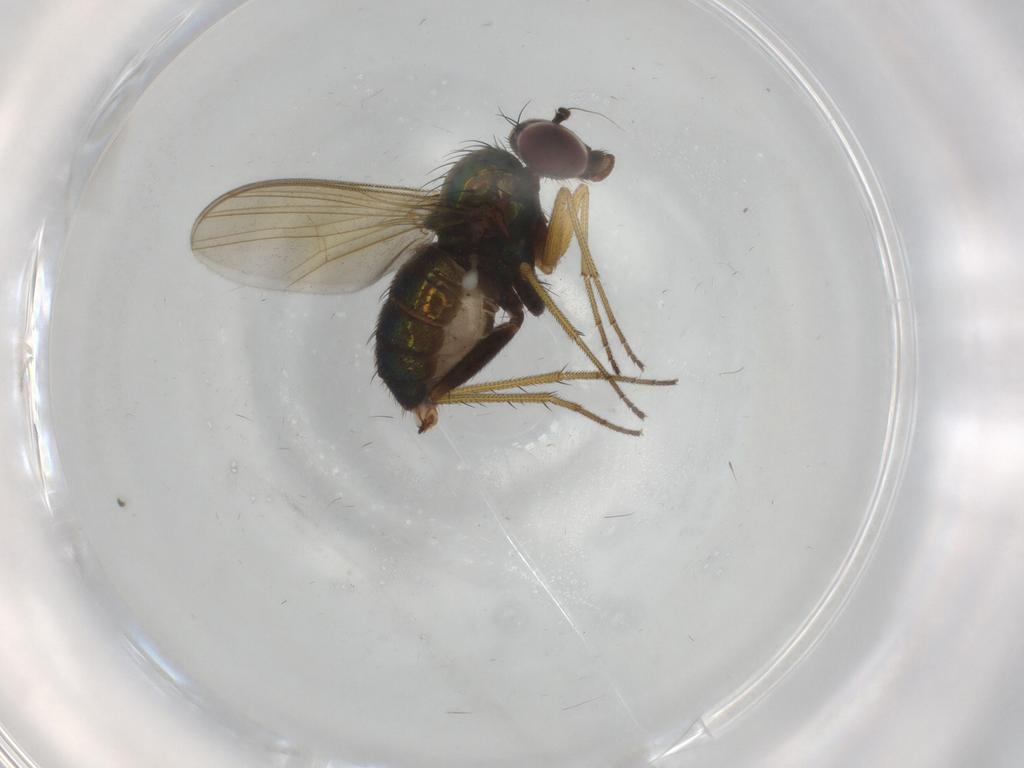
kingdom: Animalia
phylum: Arthropoda
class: Insecta
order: Diptera
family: Dolichopodidae
